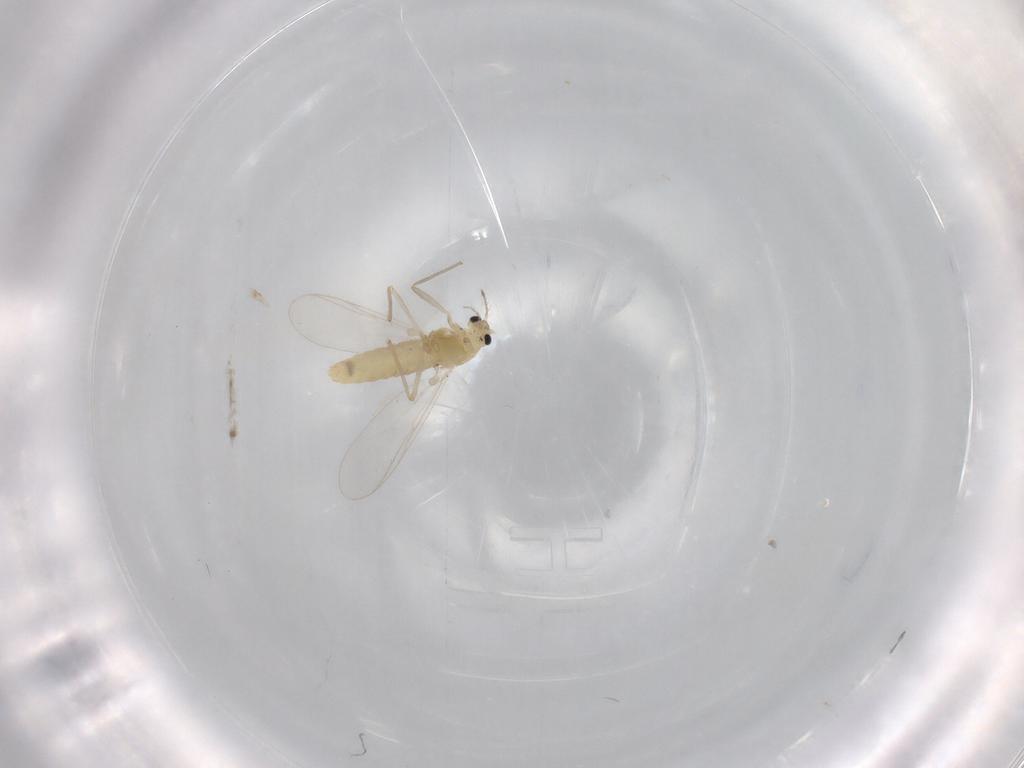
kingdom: Animalia
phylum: Arthropoda
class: Insecta
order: Diptera
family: Chironomidae
